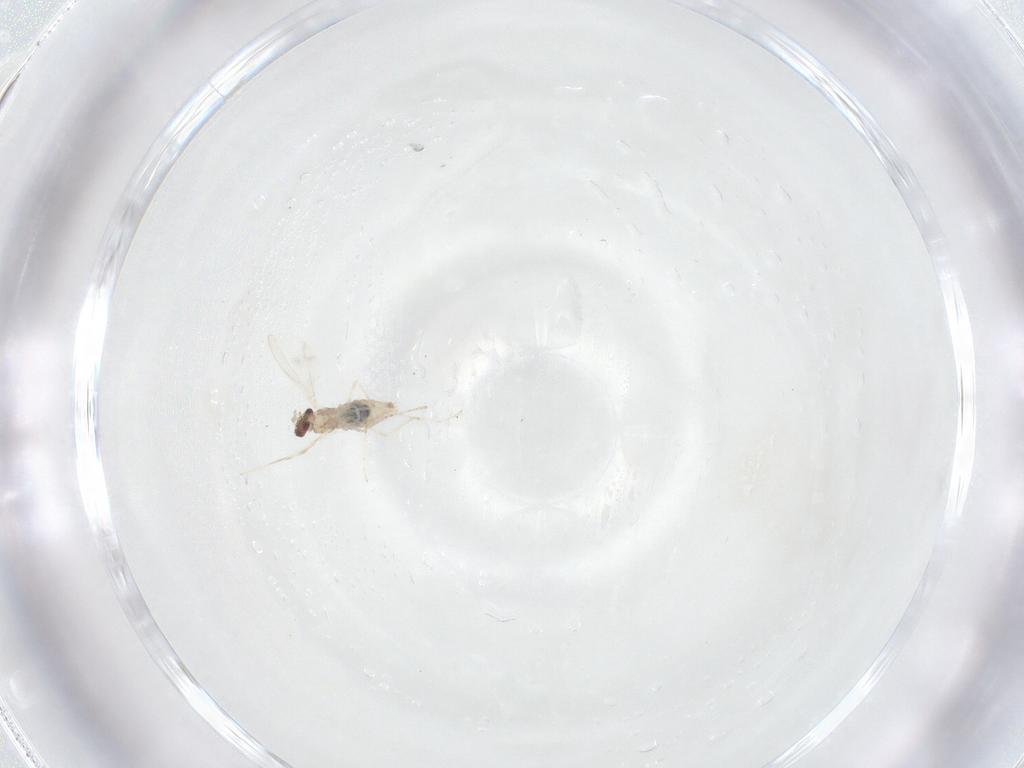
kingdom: Animalia
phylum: Arthropoda
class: Insecta
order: Diptera
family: Cecidomyiidae
